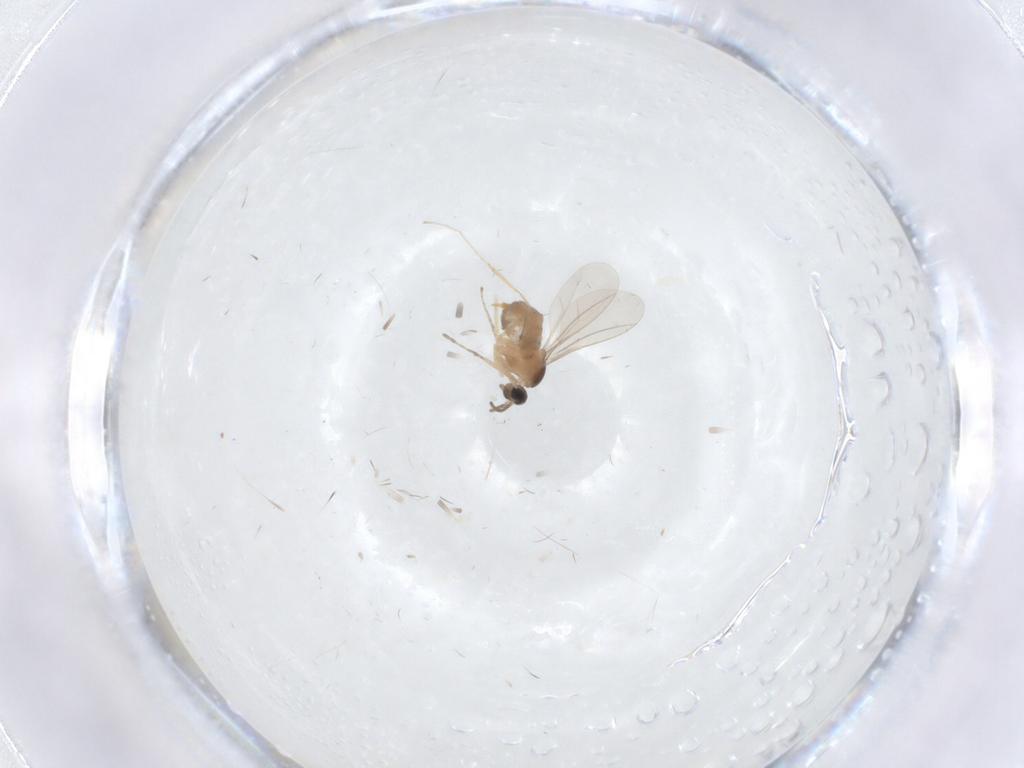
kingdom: Animalia
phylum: Arthropoda
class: Insecta
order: Diptera
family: Cecidomyiidae
